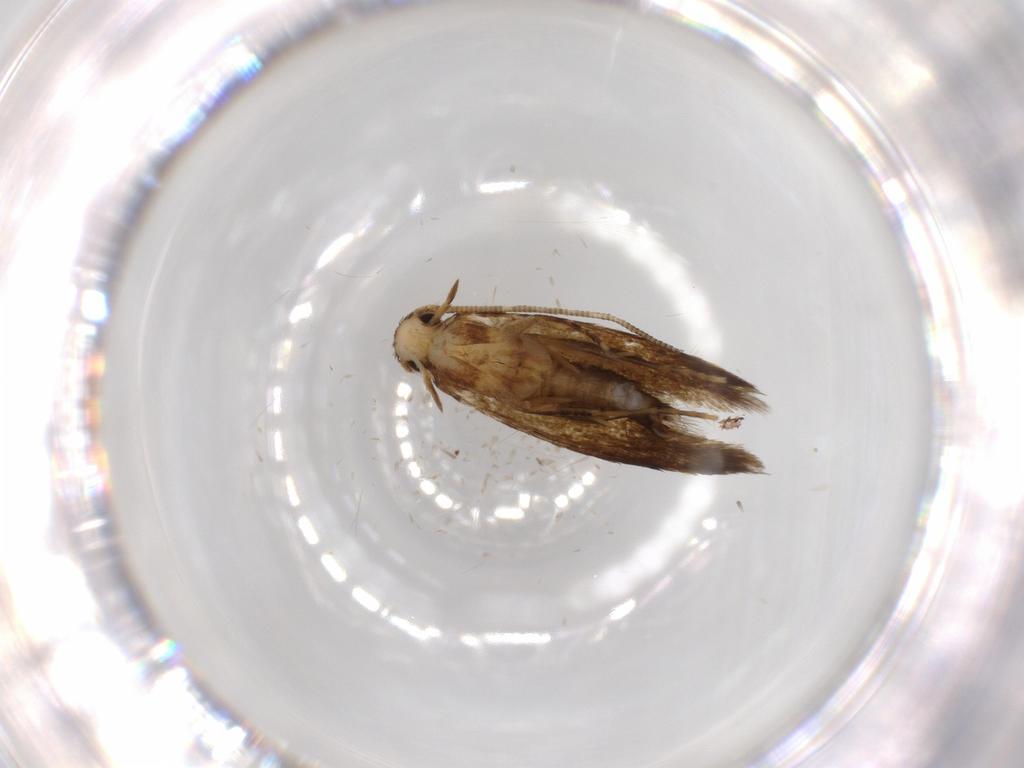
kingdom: Animalia
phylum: Arthropoda
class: Insecta
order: Lepidoptera
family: Tineidae
